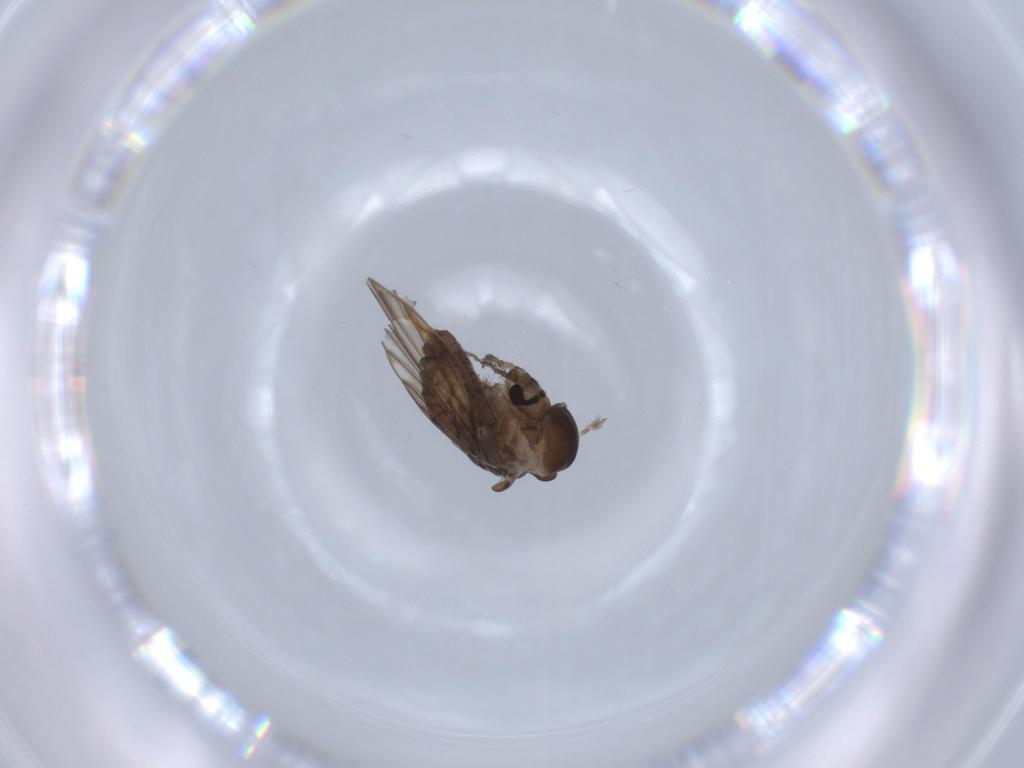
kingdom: Animalia
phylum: Arthropoda
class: Insecta
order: Diptera
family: Psychodidae
